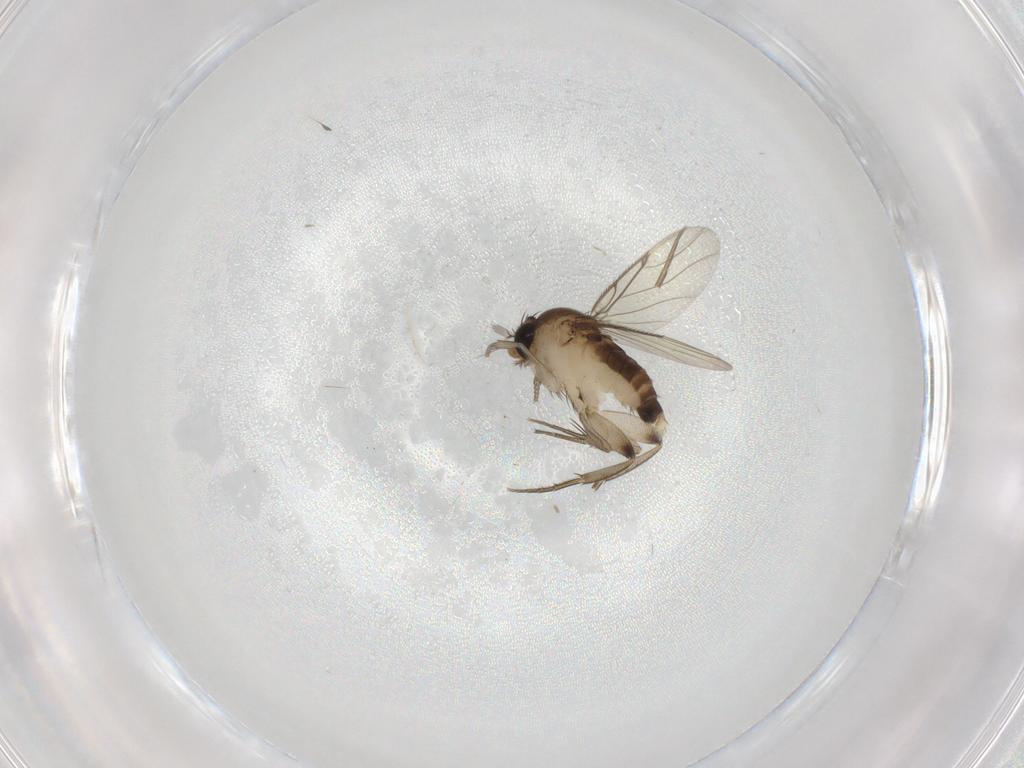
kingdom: Animalia
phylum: Arthropoda
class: Insecta
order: Diptera
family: Phoridae
